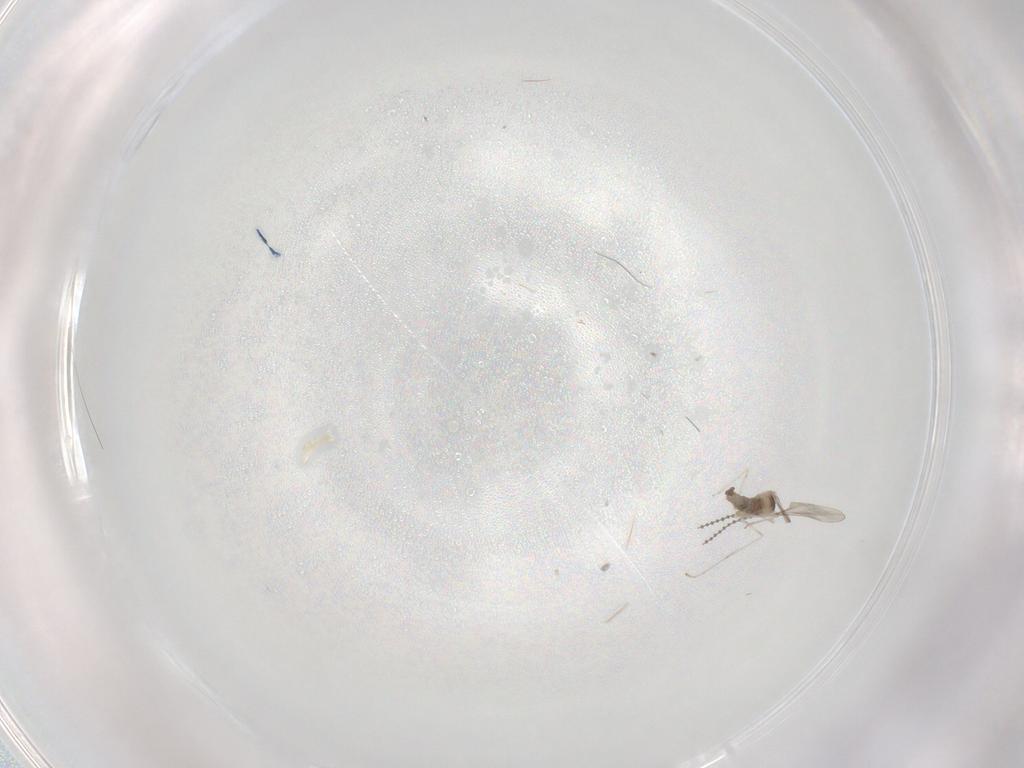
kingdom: Animalia
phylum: Arthropoda
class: Insecta
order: Diptera
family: Cecidomyiidae
